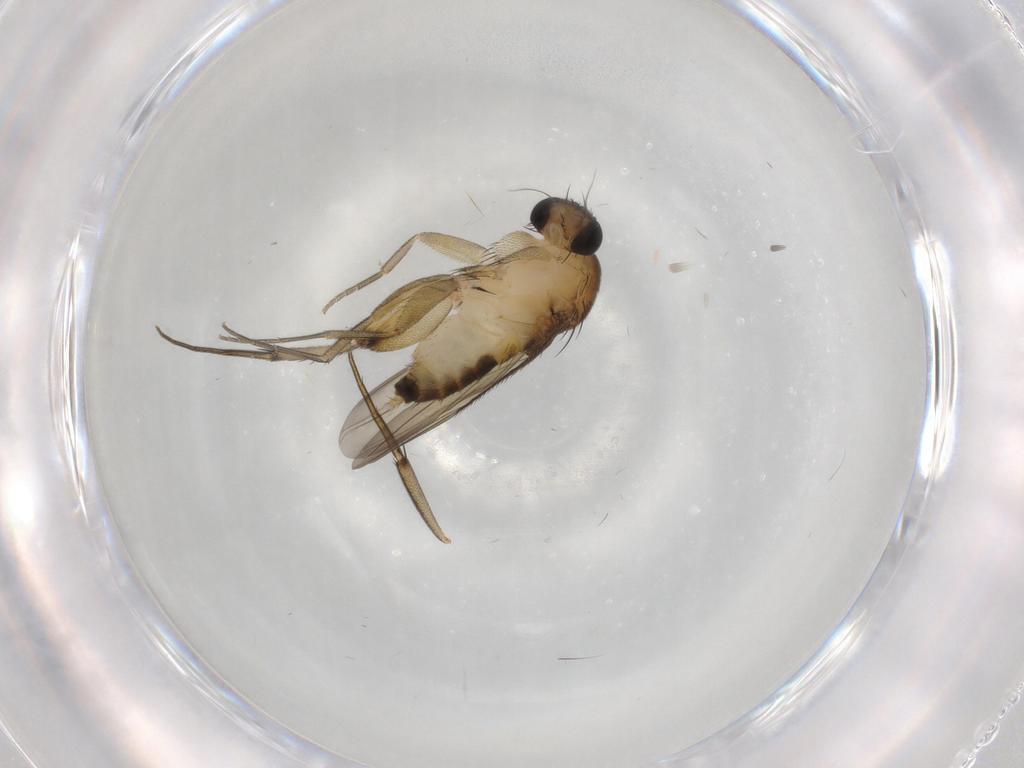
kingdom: Animalia
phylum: Arthropoda
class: Insecta
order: Diptera
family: Phoridae
